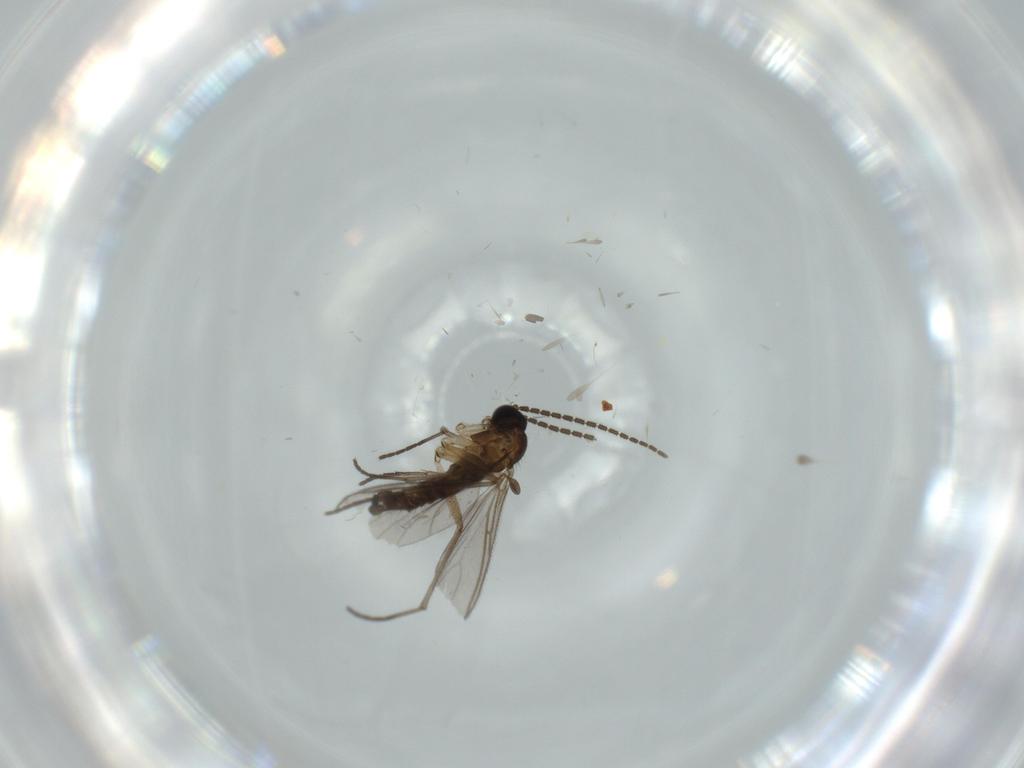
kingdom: Animalia
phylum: Arthropoda
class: Insecta
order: Diptera
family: Sciaridae
